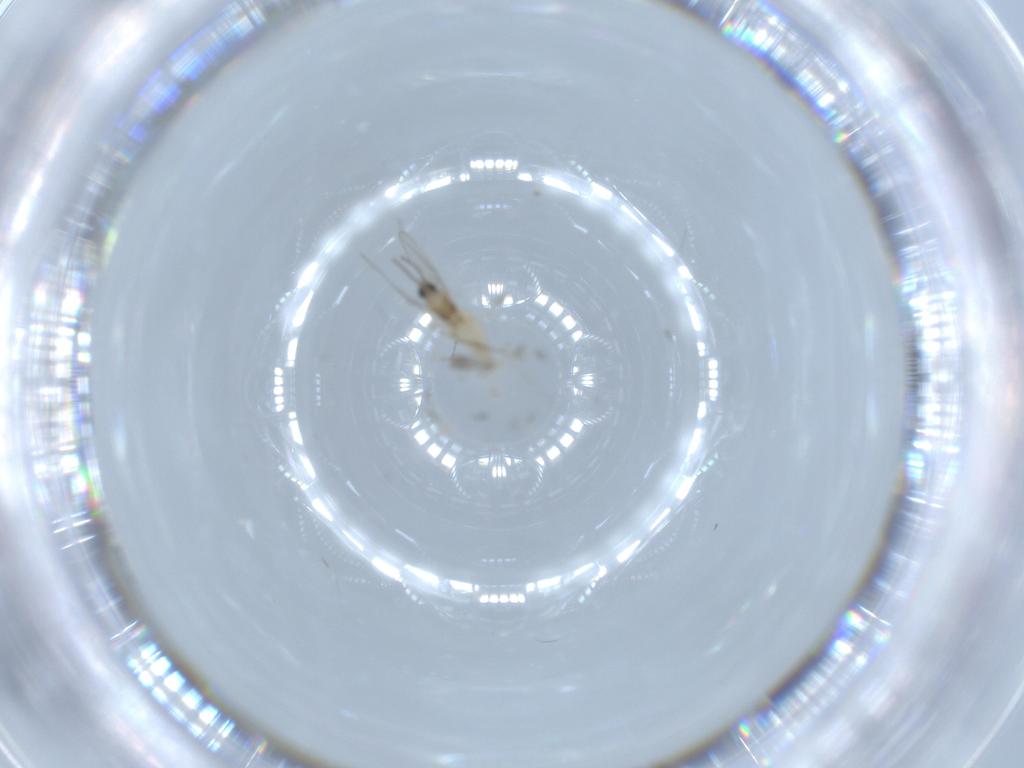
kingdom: Animalia
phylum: Arthropoda
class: Insecta
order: Diptera
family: Cecidomyiidae
